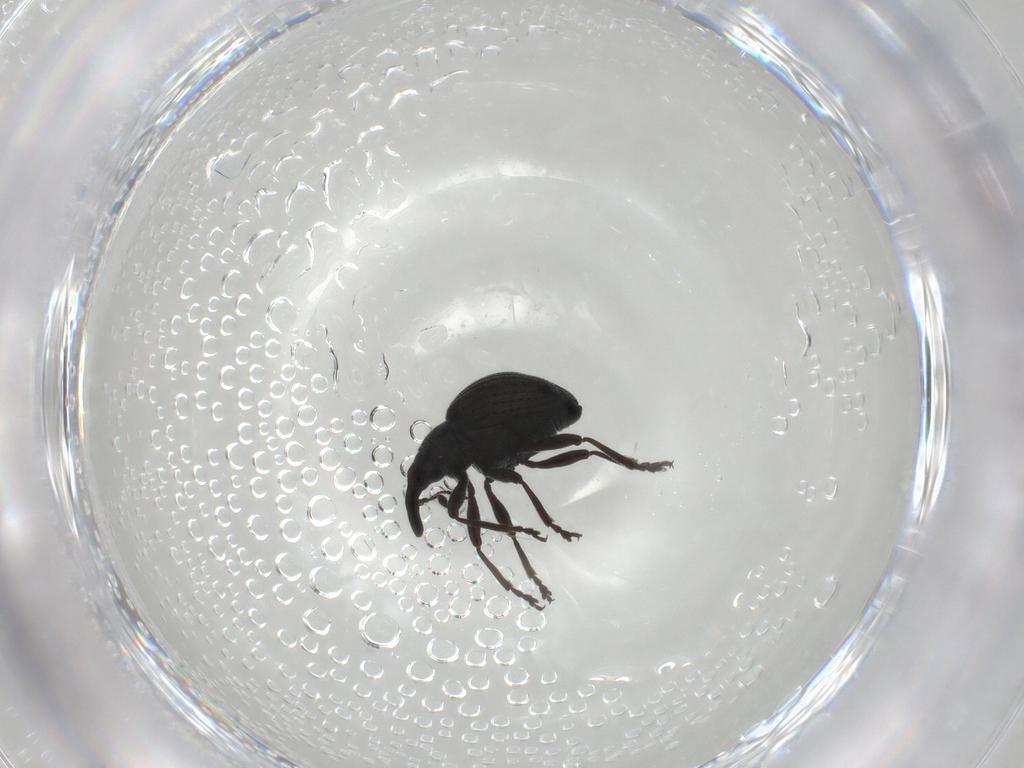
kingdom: Animalia
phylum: Arthropoda
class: Insecta
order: Coleoptera
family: Brentidae
